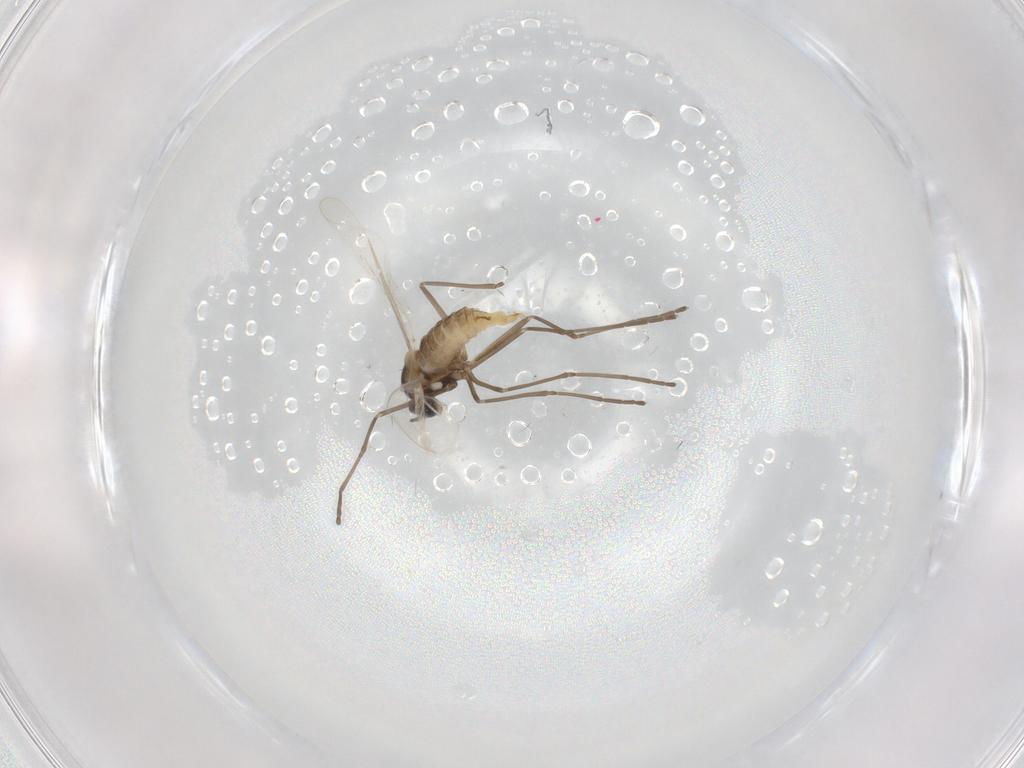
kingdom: Animalia
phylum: Arthropoda
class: Insecta
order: Diptera
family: Cecidomyiidae
